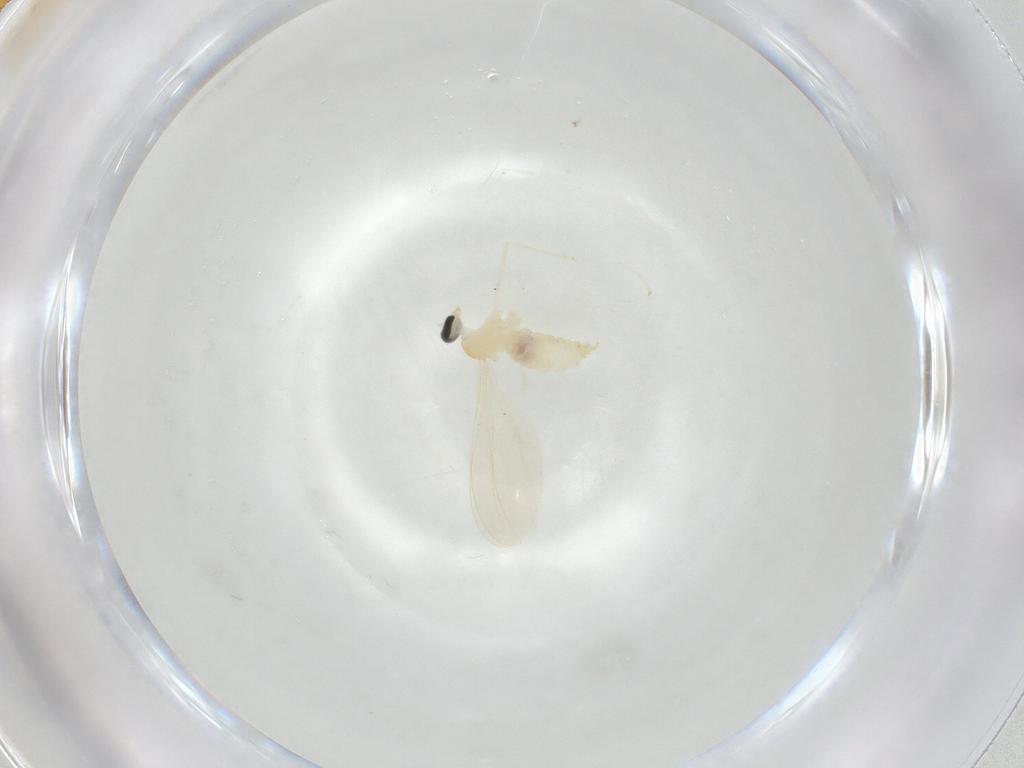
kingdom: Animalia
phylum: Arthropoda
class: Insecta
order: Diptera
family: Cecidomyiidae
